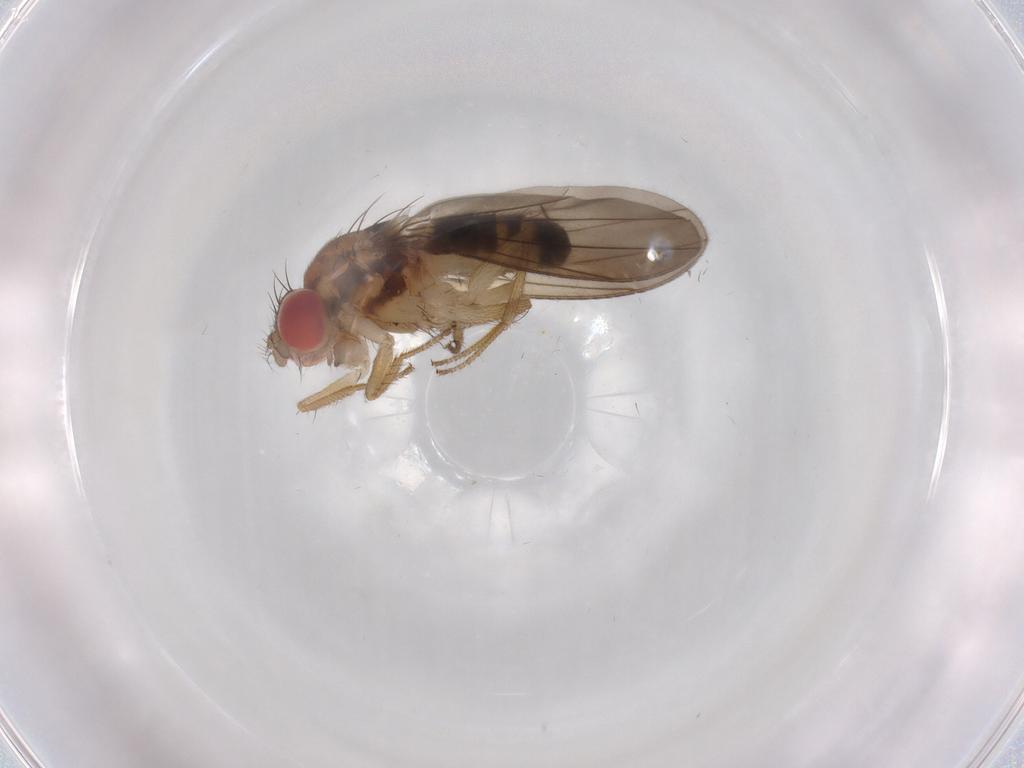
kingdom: Animalia
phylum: Arthropoda
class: Insecta
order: Diptera
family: Drosophilidae
